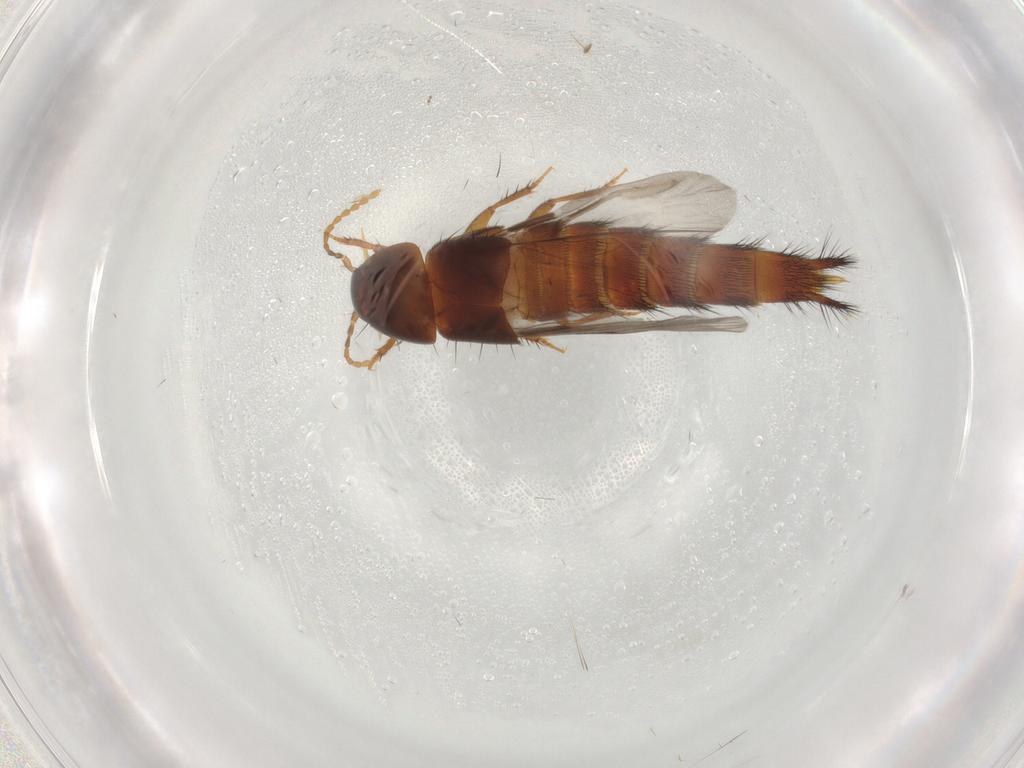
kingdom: Animalia
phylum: Arthropoda
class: Insecta
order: Coleoptera
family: Staphylinidae
